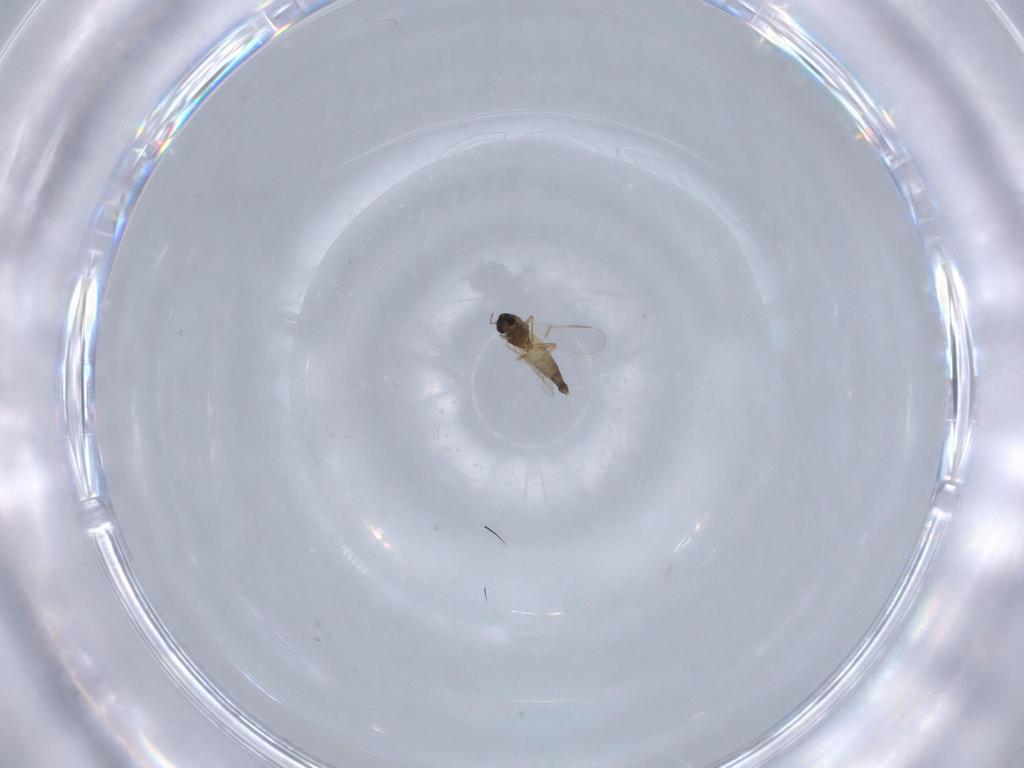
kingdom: Animalia
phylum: Arthropoda
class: Insecta
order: Diptera
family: Chironomidae
